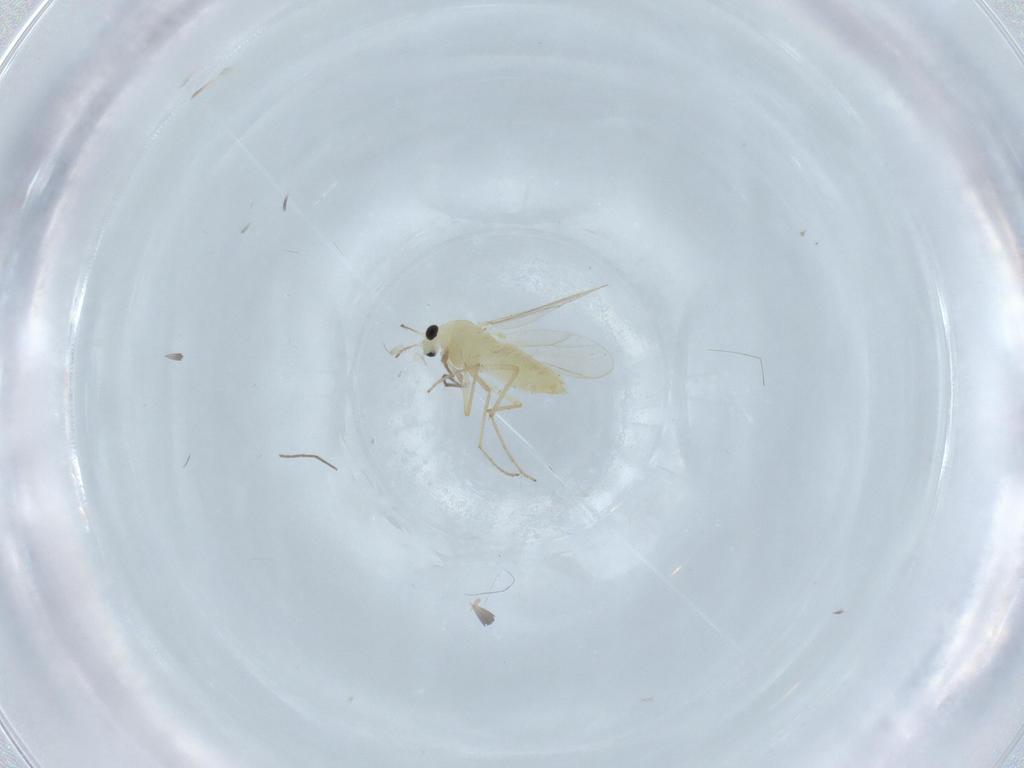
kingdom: Animalia
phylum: Arthropoda
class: Insecta
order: Diptera
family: Chironomidae
